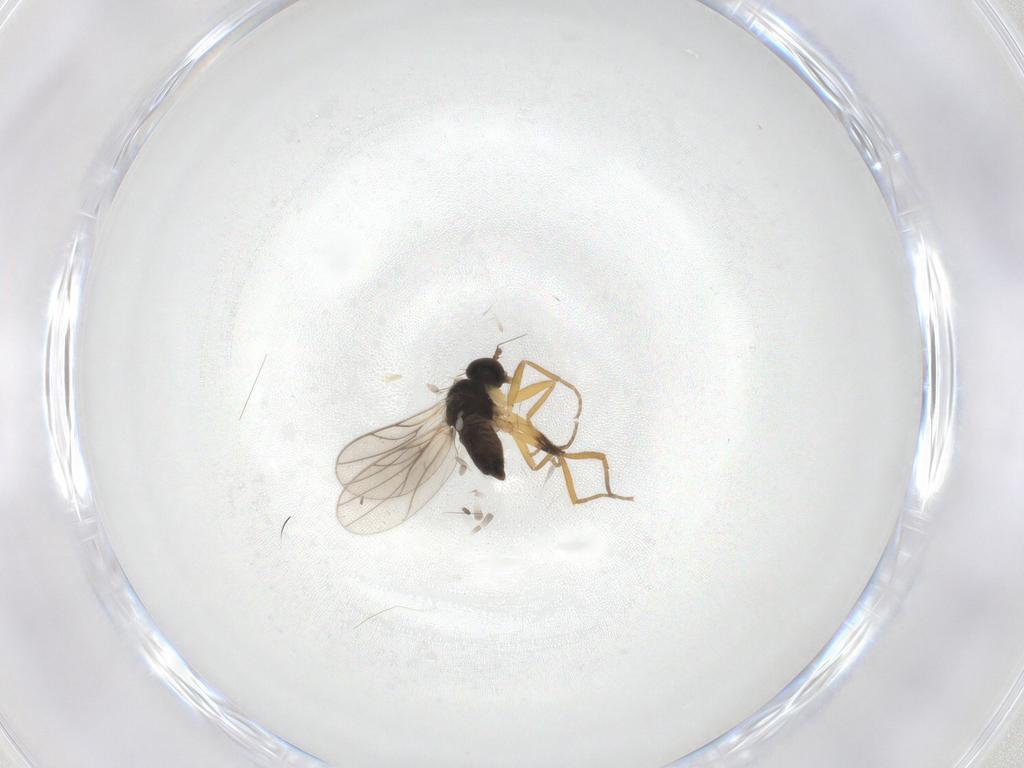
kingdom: Animalia
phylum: Arthropoda
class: Insecta
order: Diptera
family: Hybotidae
